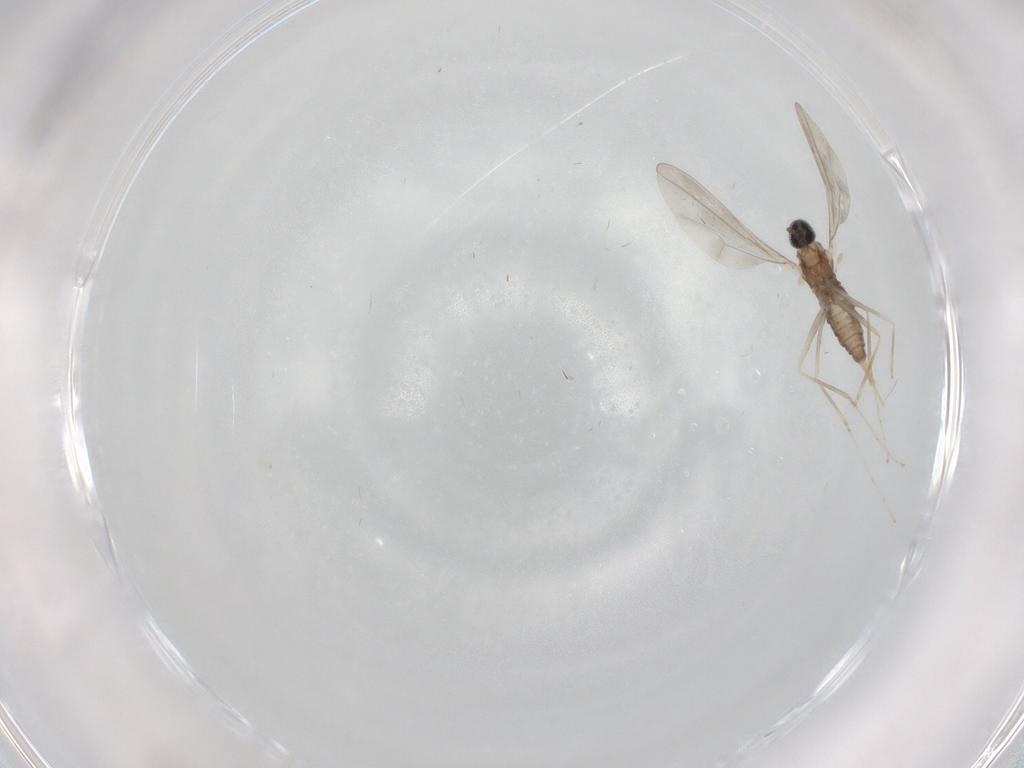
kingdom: Animalia
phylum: Arthropoda
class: Insecta
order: Diptera
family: Cecidomyiidae
